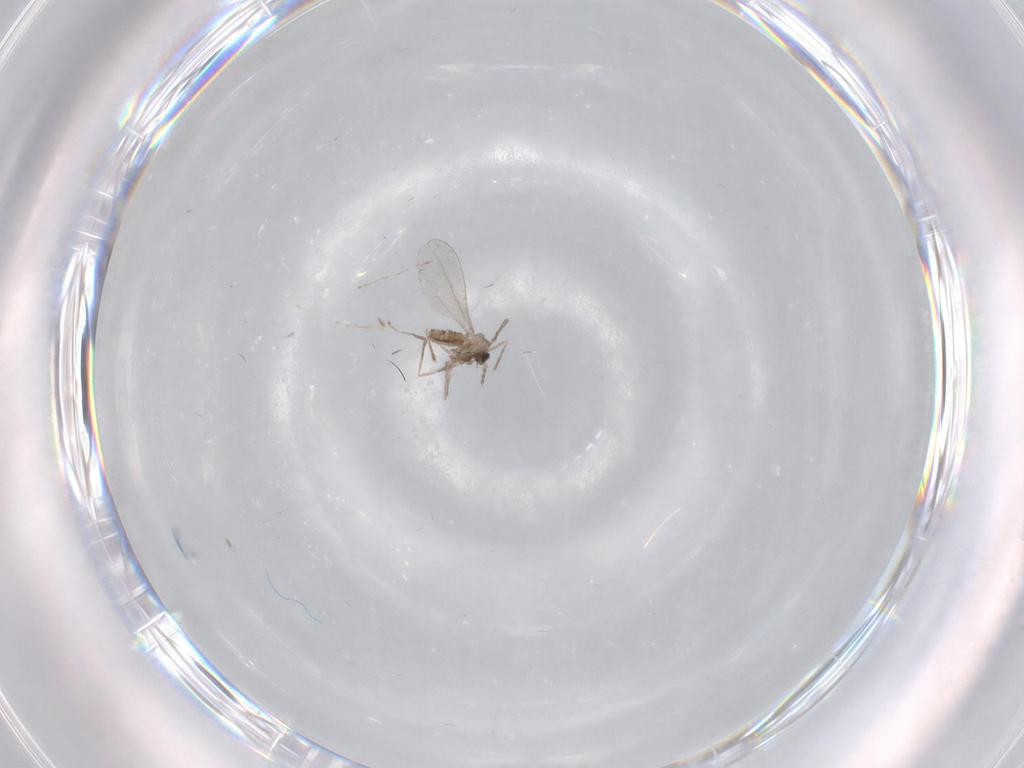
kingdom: Animalia
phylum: Arthropoda
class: Insecta
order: Diptera
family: Cecidomyiidae
